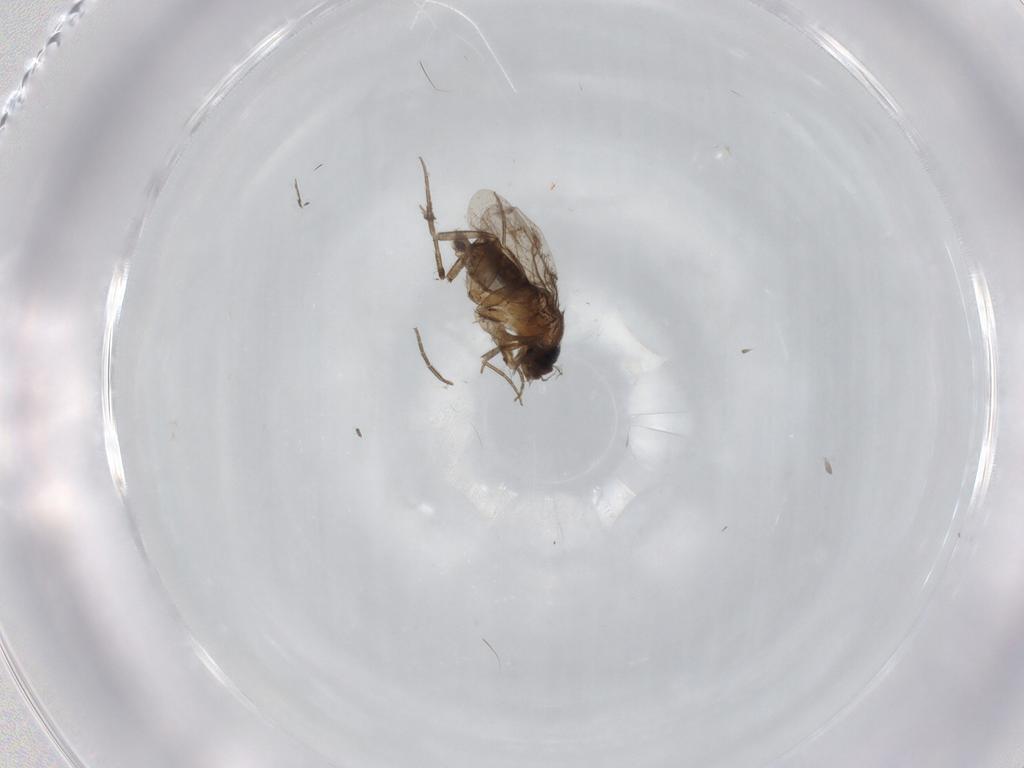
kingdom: Animalia
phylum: Arthropoda
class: Insecta
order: Diptera
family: Phoridae
